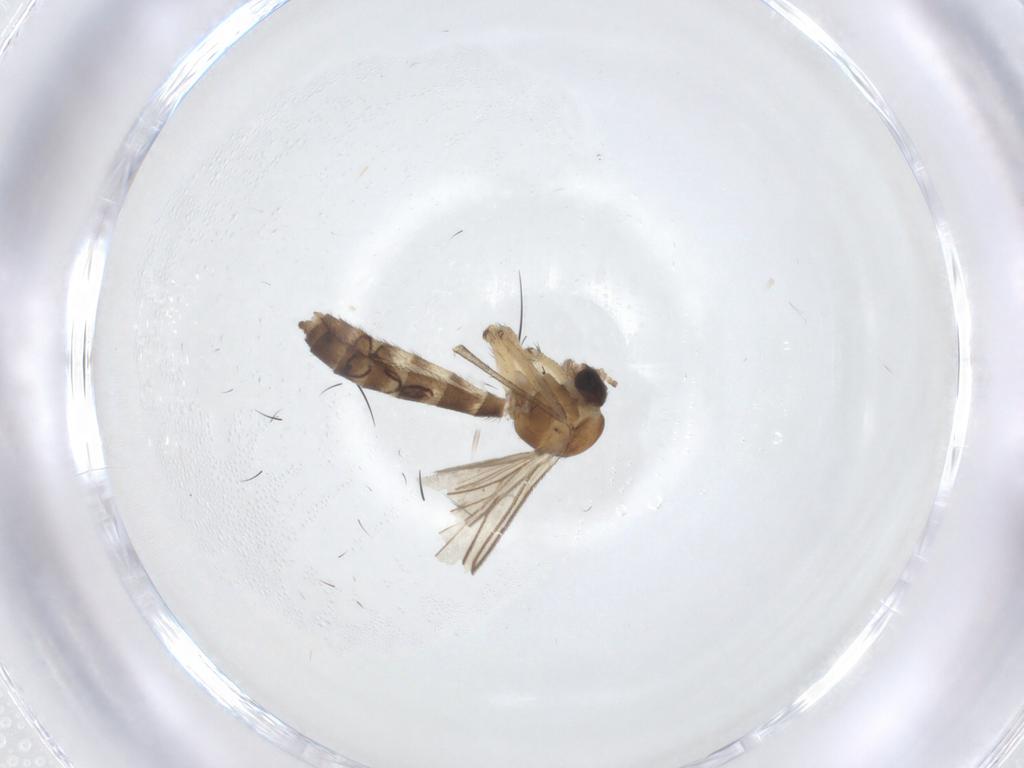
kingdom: Animalia
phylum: Arthropoda
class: Insecta
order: Diptera
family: Keroplatidae
